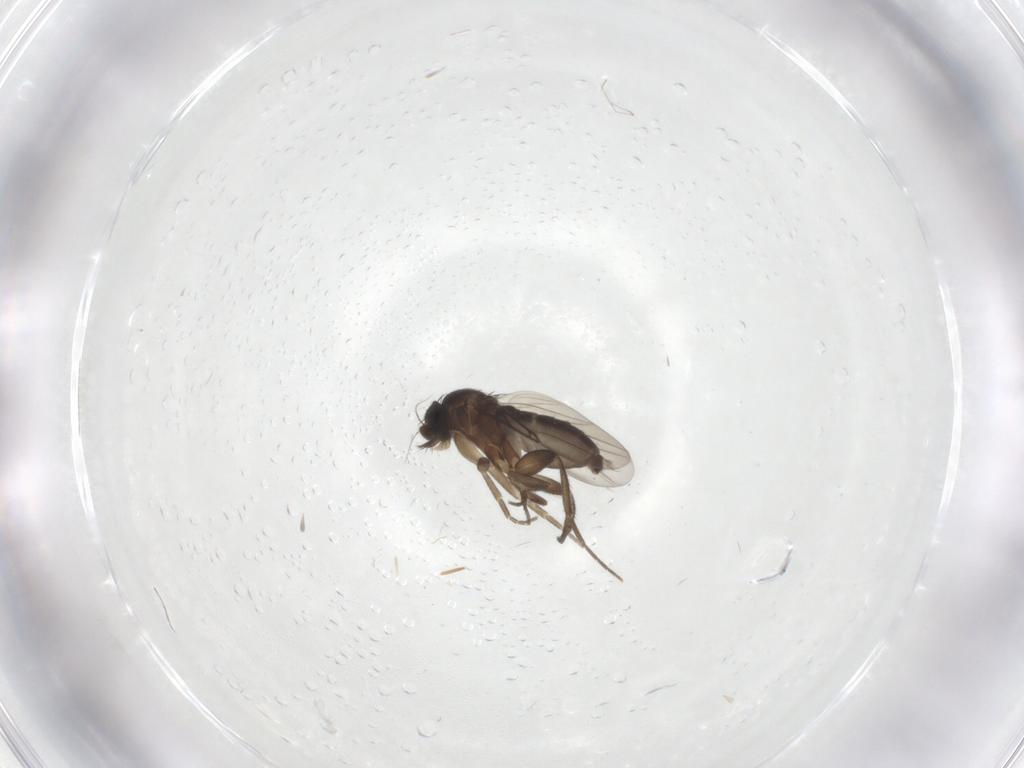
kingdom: Animalia
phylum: Arthropoda
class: Insecta
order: Diptera
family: Phoridae
